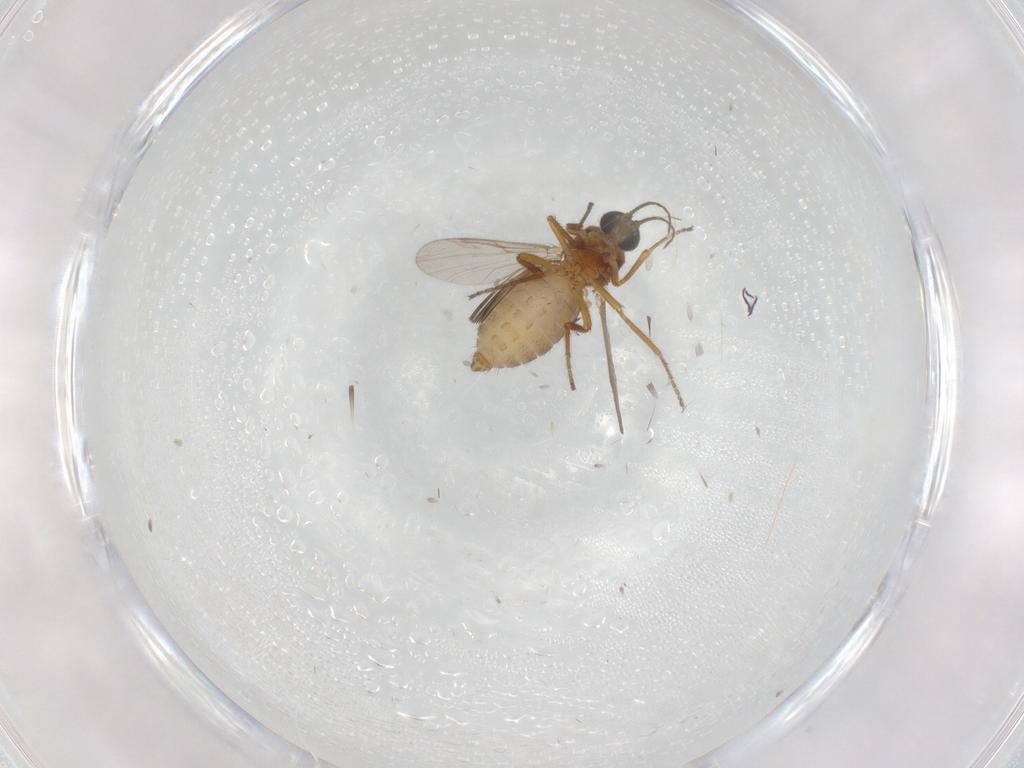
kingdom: Animalia
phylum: Arthropoda
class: Insecta
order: Diptera
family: Ceratopogonidae
